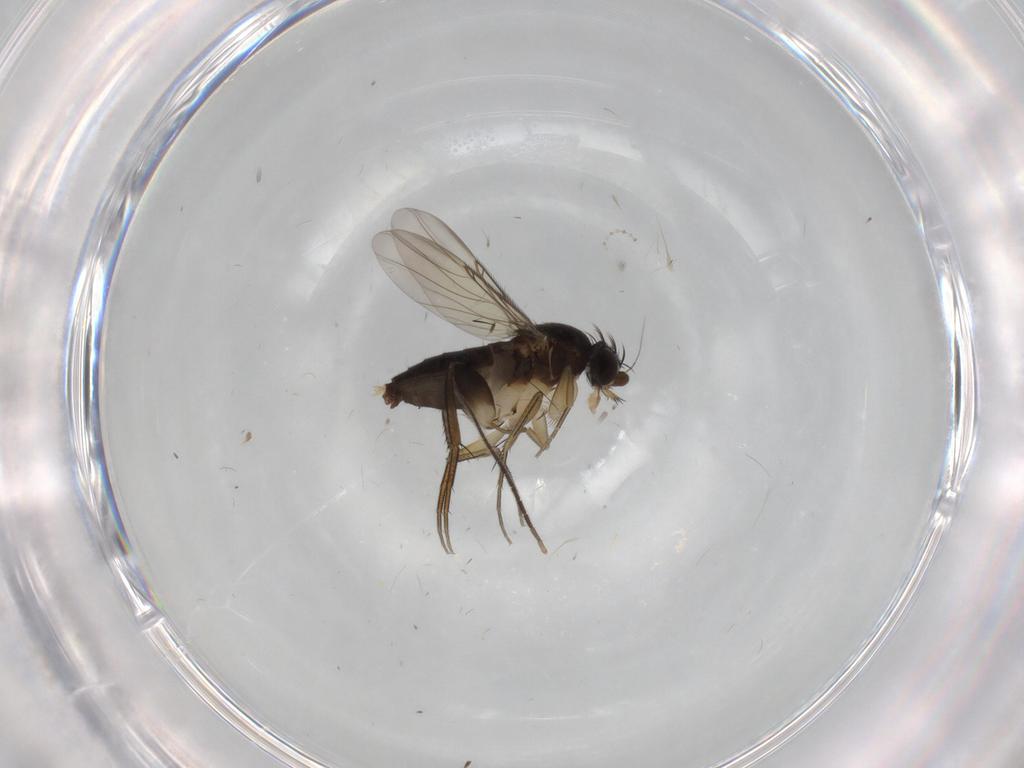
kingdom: Animalia
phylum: Arthropoda
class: Insecta
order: Diptera
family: Phoridae
